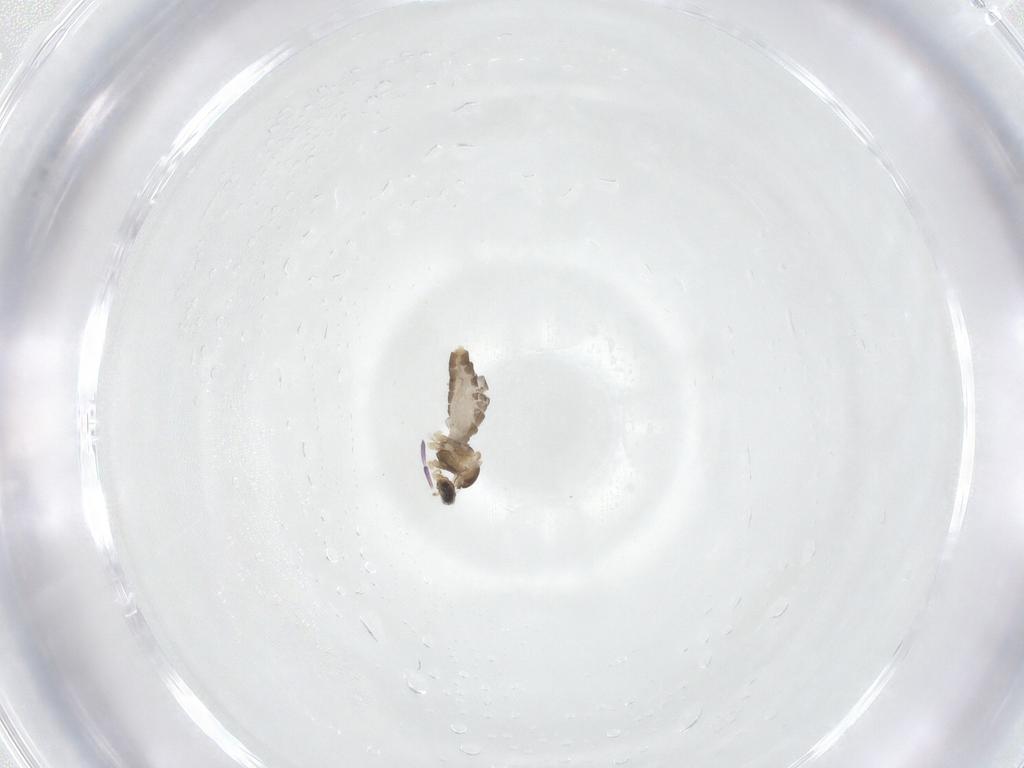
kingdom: Animalia
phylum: Arthropoda
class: Insecta
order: Diptera
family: Cecidomyiidae
